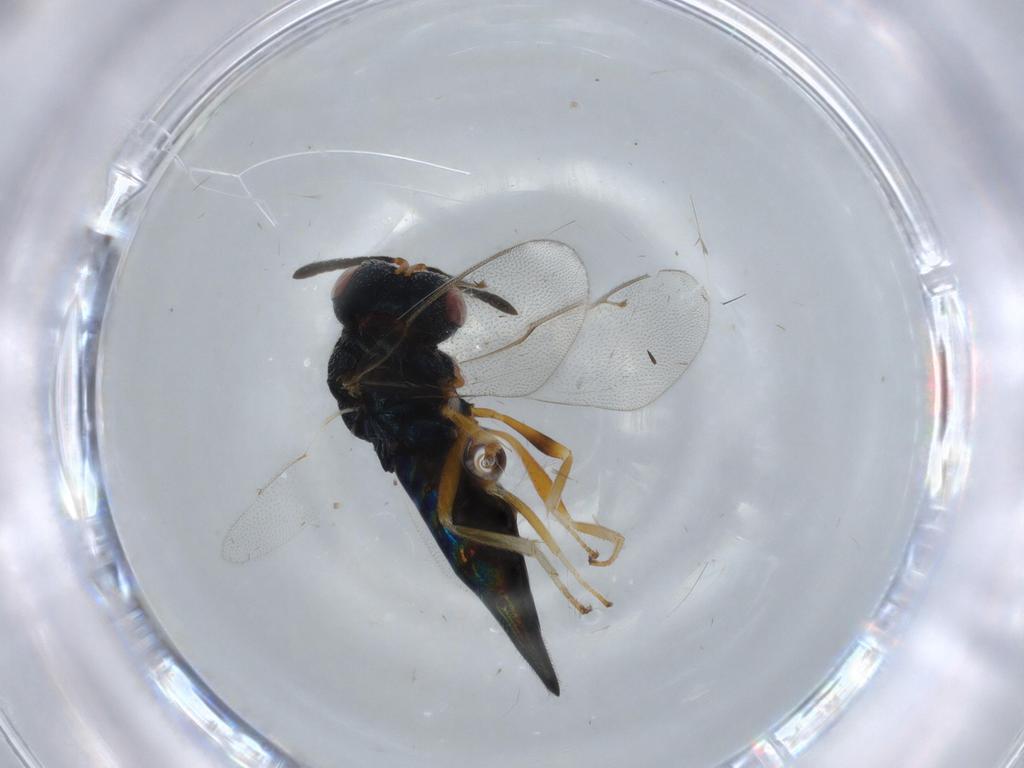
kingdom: Animalia
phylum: Arthropoda
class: Insecta
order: Hymenoptera
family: Pteromalidae
